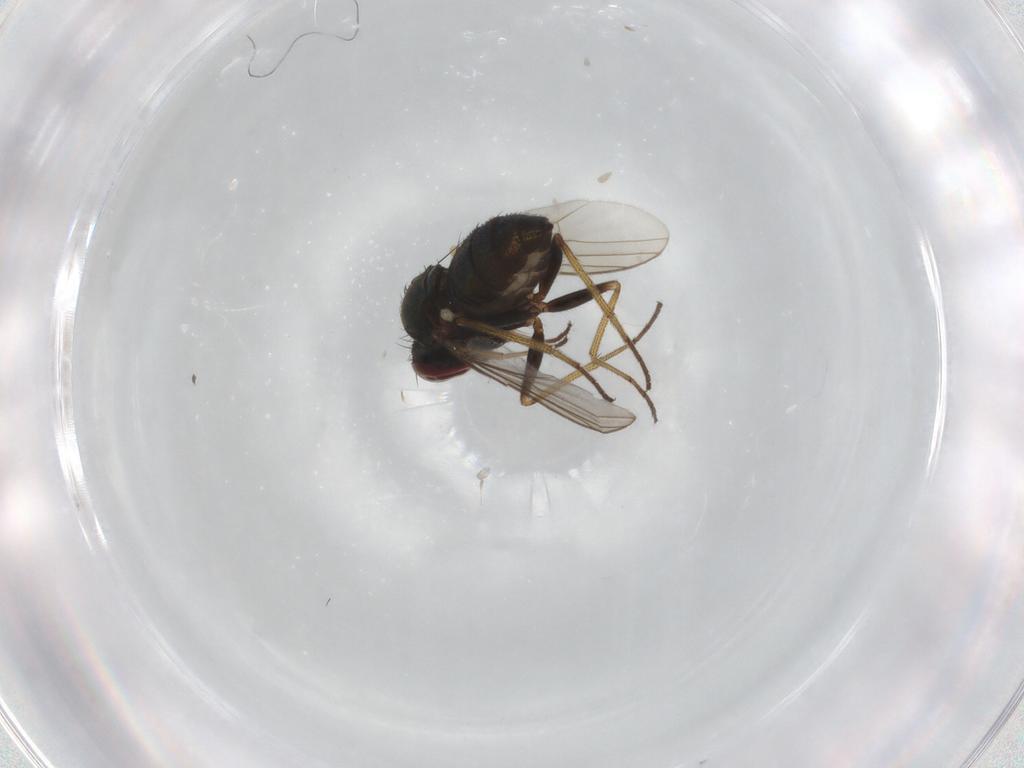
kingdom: Animalia
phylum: Arthropoda
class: Insecta
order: Diptera
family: Dolichopodidae
